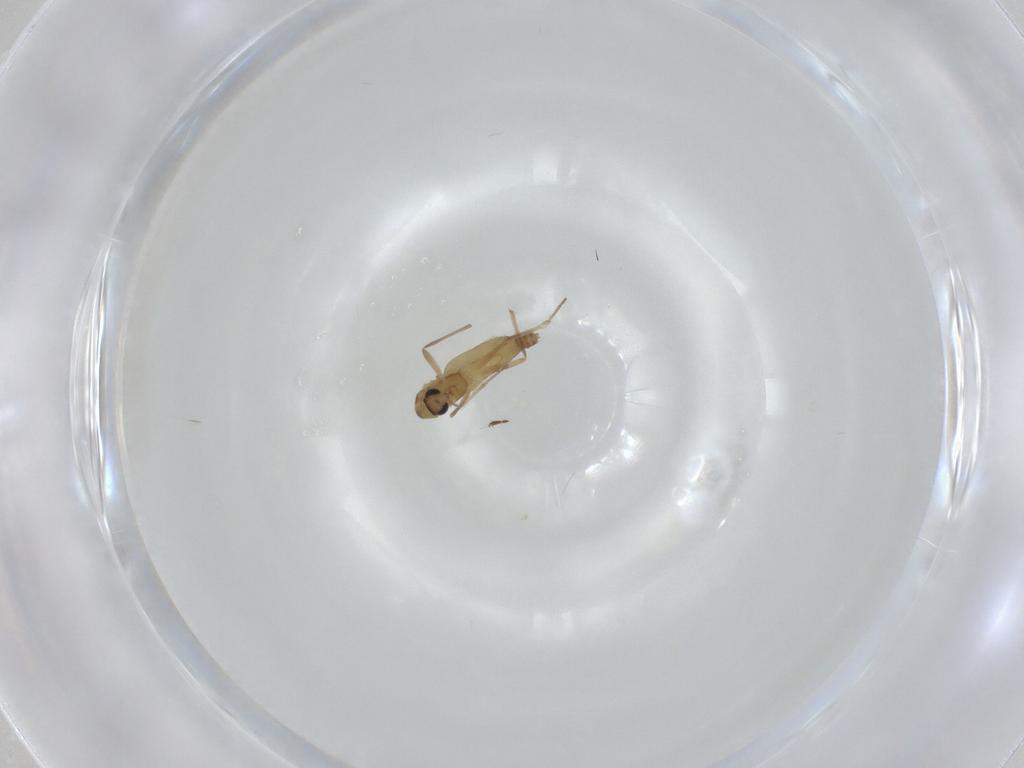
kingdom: Animalia
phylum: Arthropoda
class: Insecta
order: Diptera
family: Chironomidae
